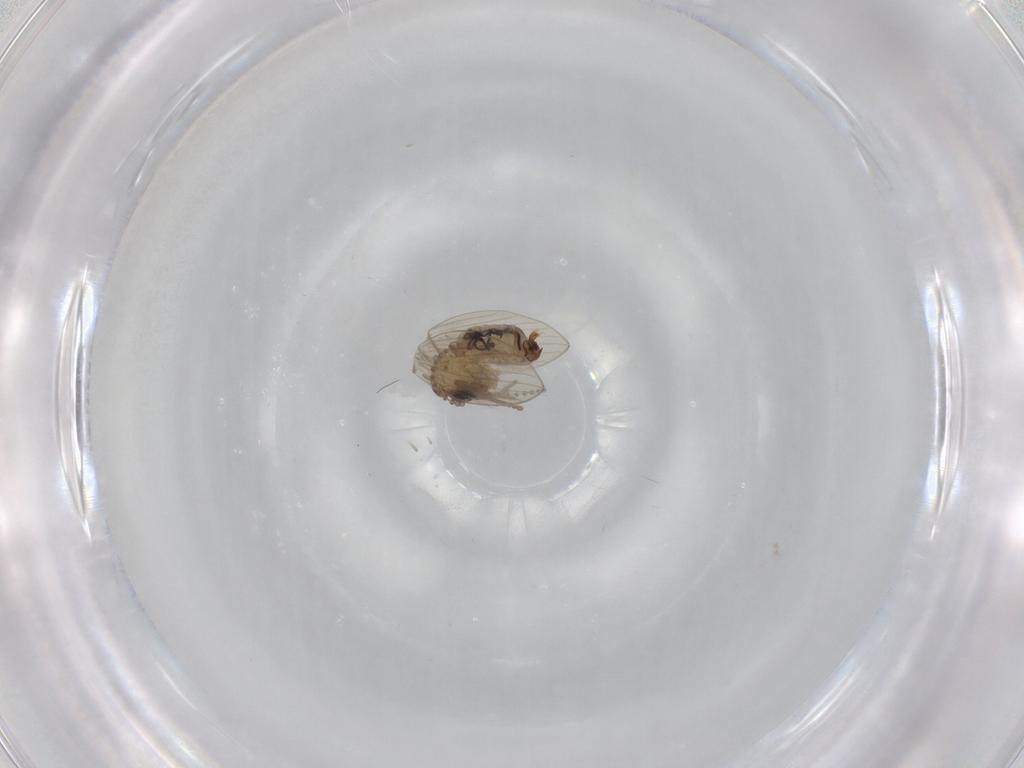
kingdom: Animalia
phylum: Arthropoda
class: Insecta
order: Diptera
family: Psychodidae
